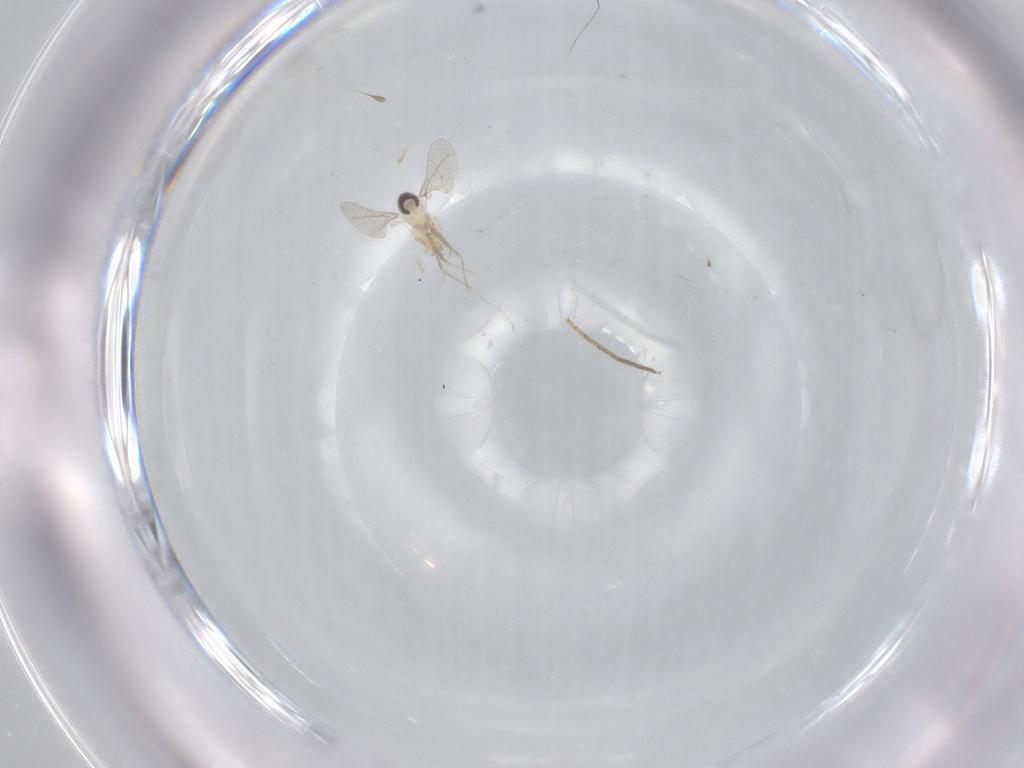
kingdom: Animalia
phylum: Arthropoda
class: Insecta
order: Diptera
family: Cecidomyiidae
